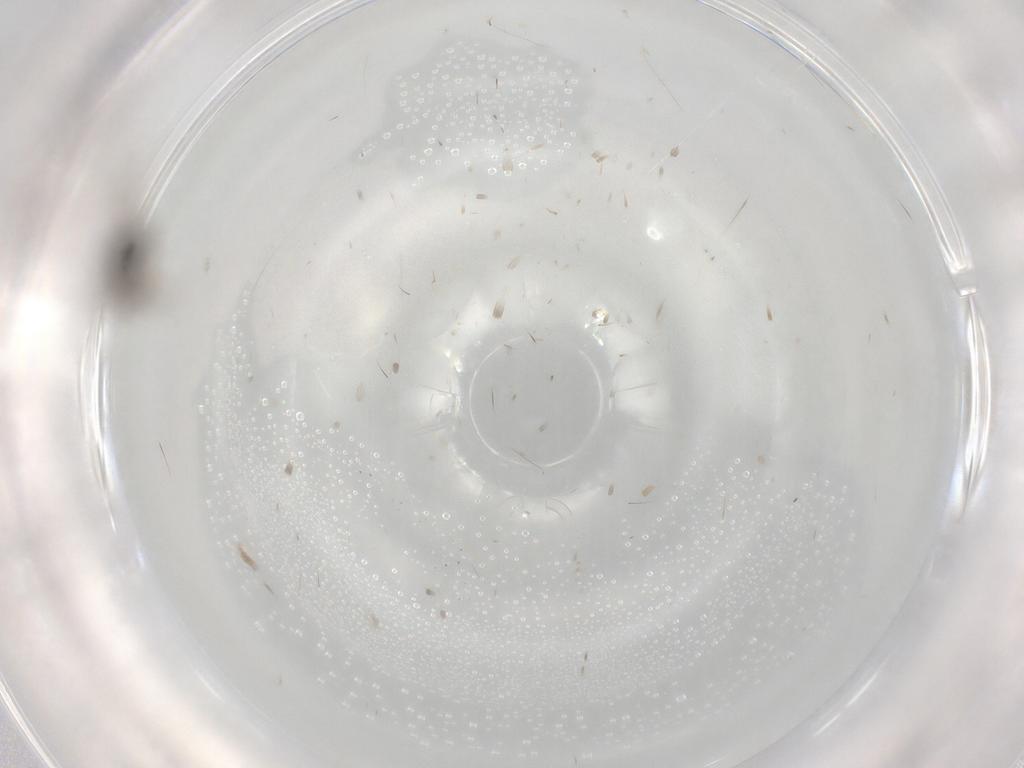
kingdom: Animalia
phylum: Arthropoda
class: Insecta
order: Diptera
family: Ceratopogonidae
